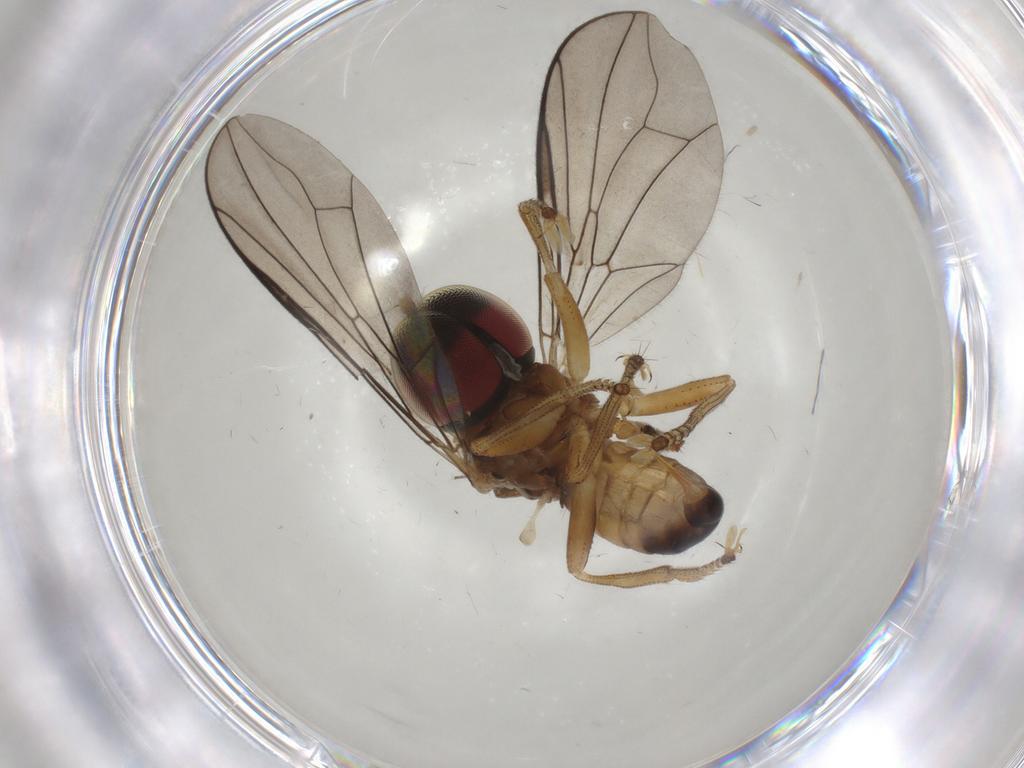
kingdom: Animalia
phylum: Arthropoda
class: Insecta
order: Diptera
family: Pipunculidae
